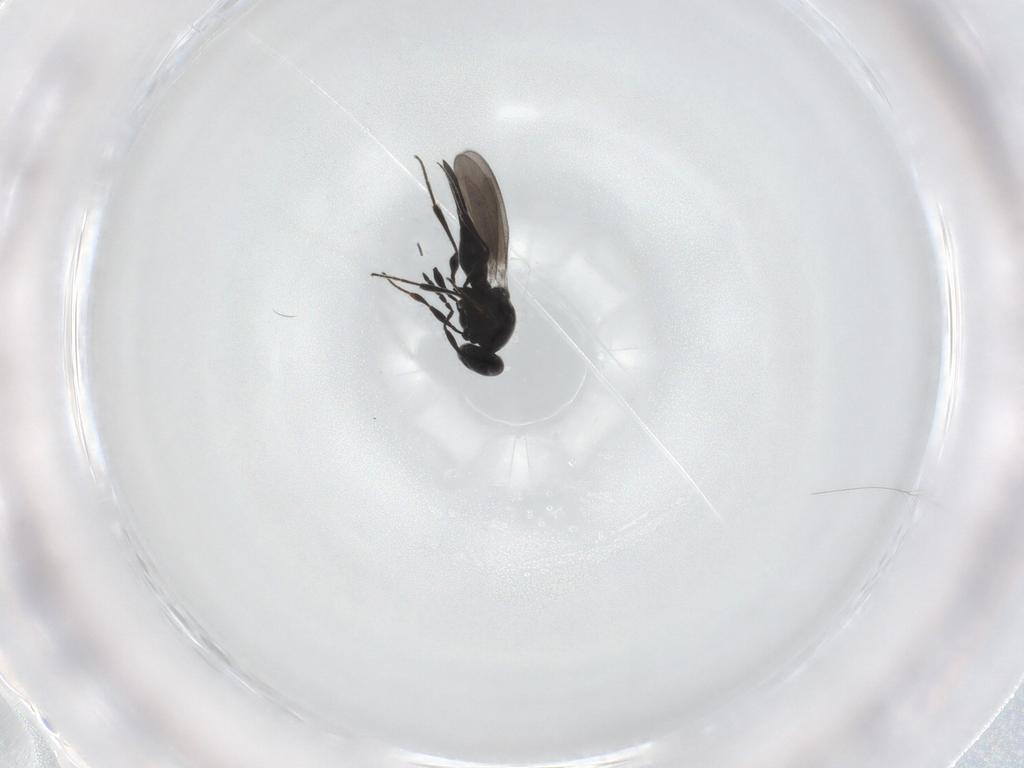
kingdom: Animalia
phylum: Arthropoda
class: Insecta
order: Hymenoptera
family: Platygastridae
